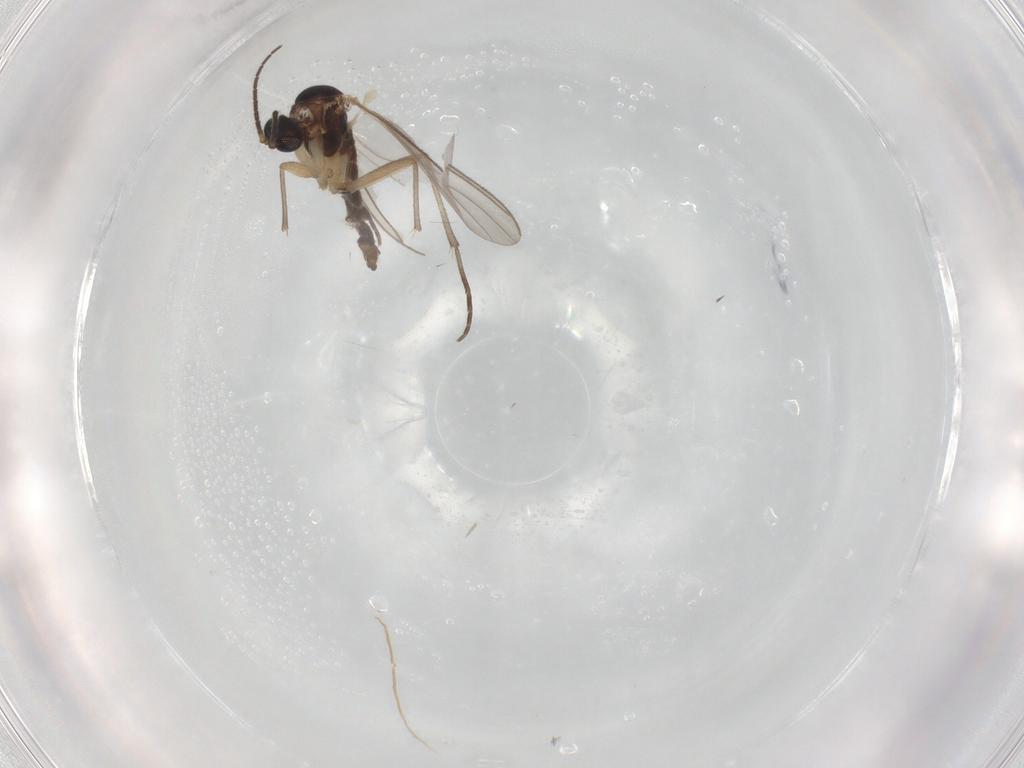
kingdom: Animalia
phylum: Arthropoda
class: Insecta
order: Diptera
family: Sciaridae
